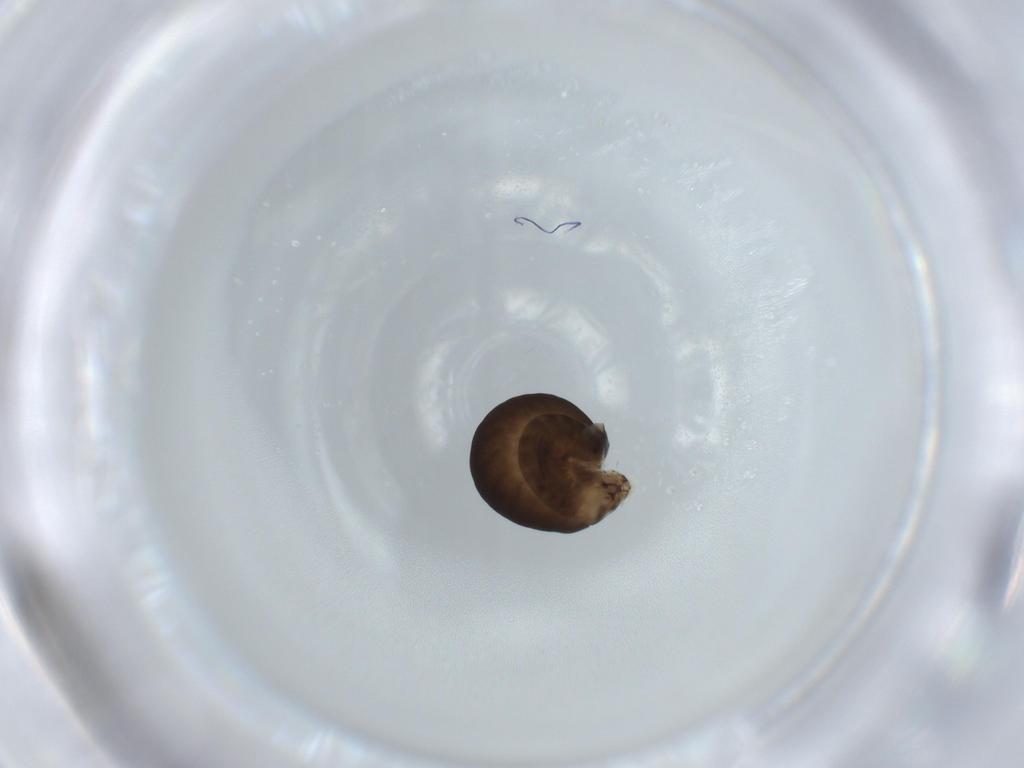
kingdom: Animalia
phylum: Arthropoda
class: Insecta
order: Hymenoptera
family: Dryinidae
